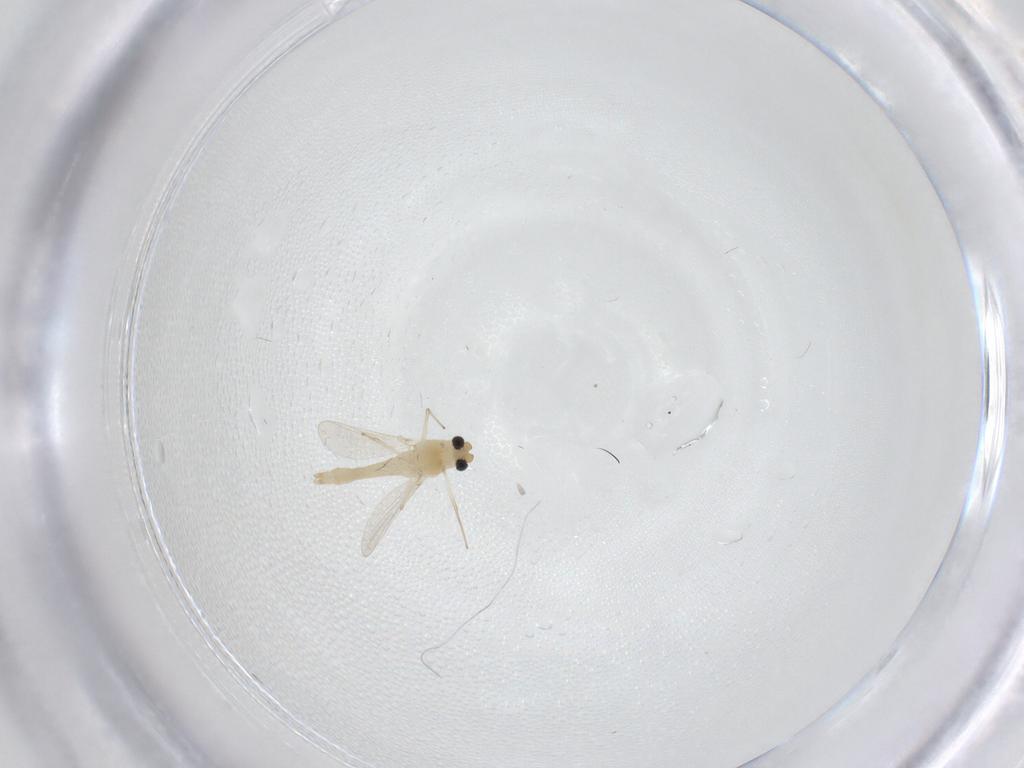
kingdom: Animalia
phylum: Arthropoda
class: Insecta
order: Diptera
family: Chironomidae
